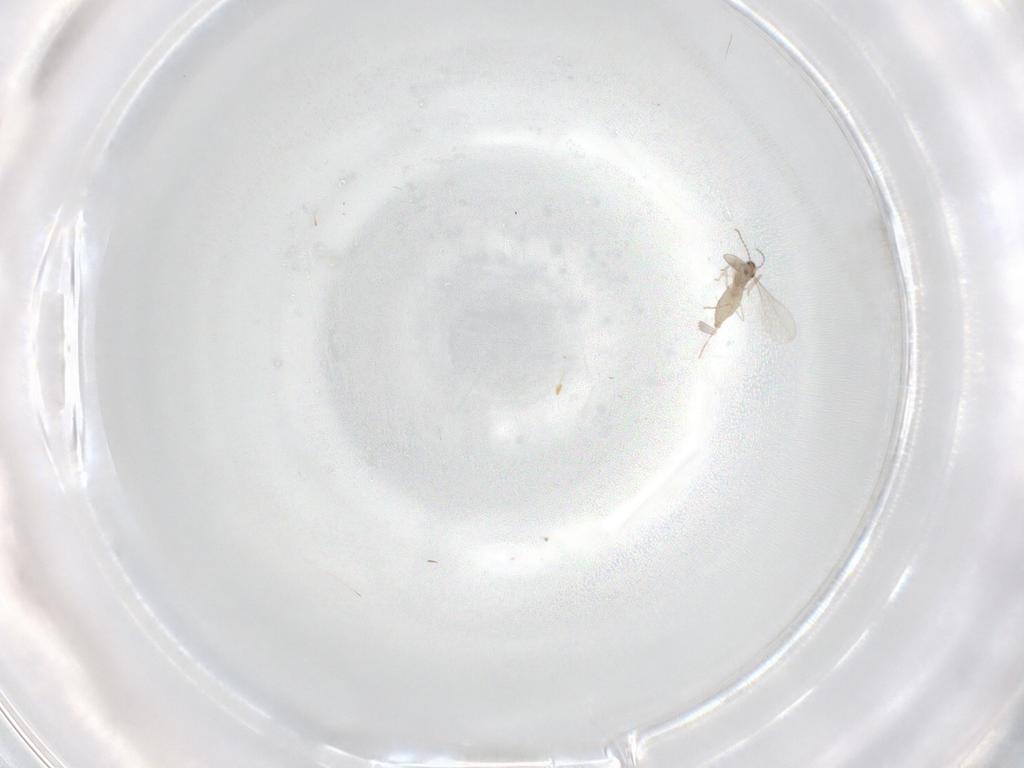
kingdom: Animalia
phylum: Arthropoda
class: Insecta
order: Diptera
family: Cecidomyiidae
